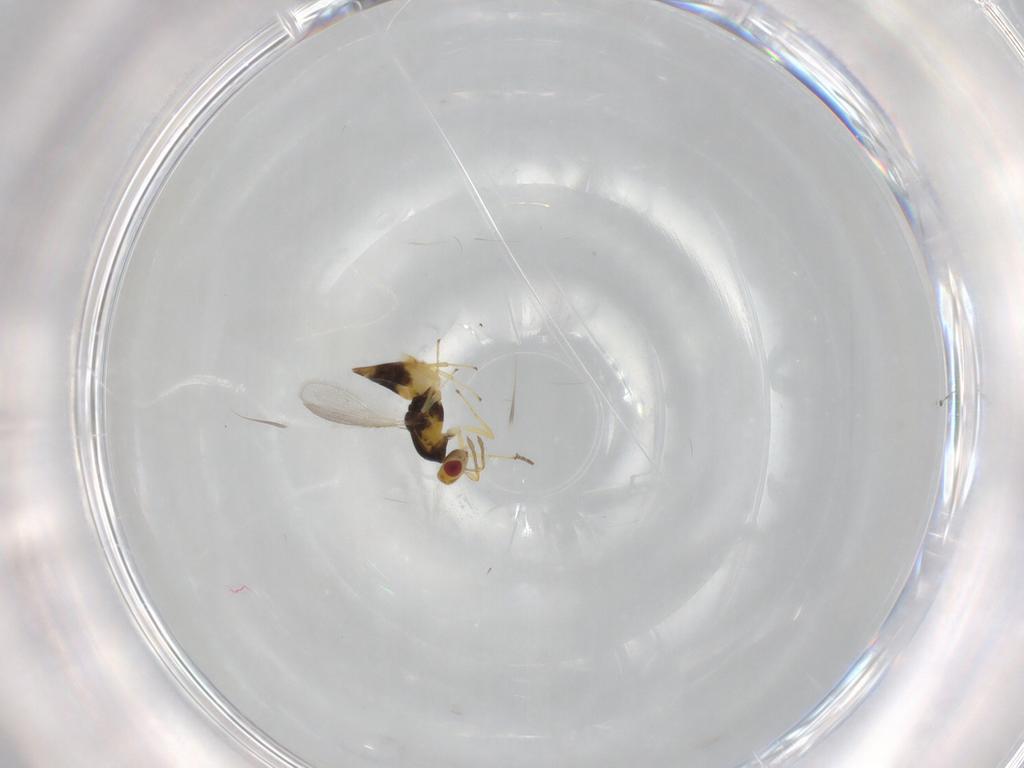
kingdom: Animalia
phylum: Arthropoda
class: Insecta
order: Hymenoptera
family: Eulophidae
